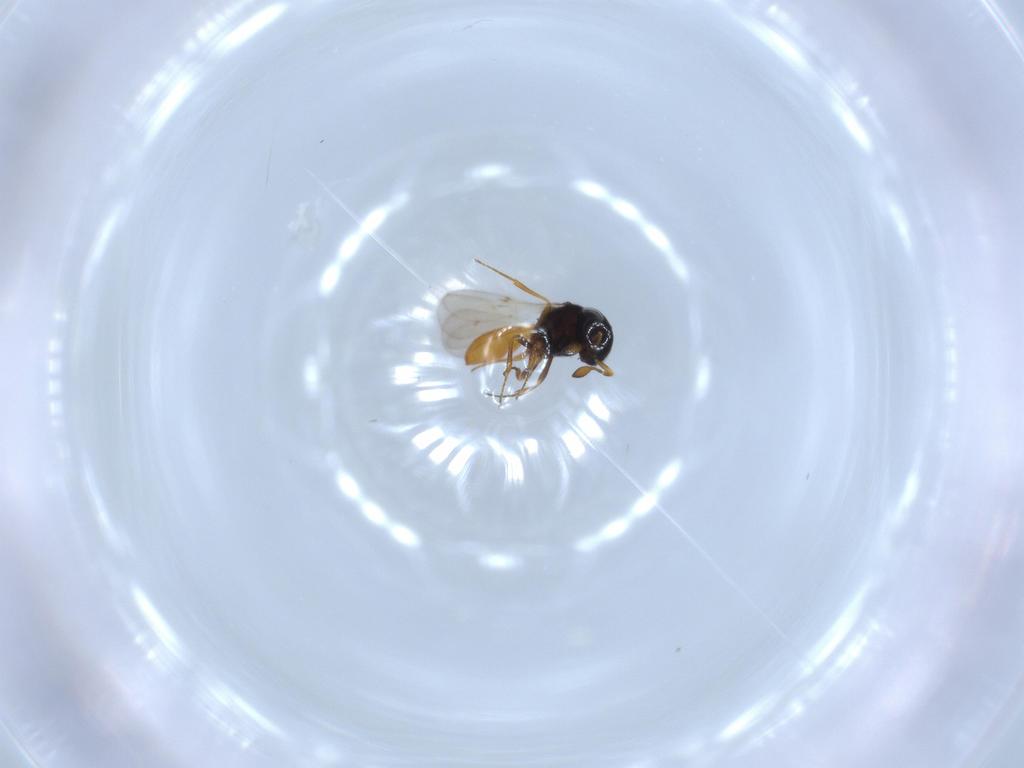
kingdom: Animalia
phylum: Arthropoda
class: Insecta
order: Hymenoptera
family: Scelionidae
